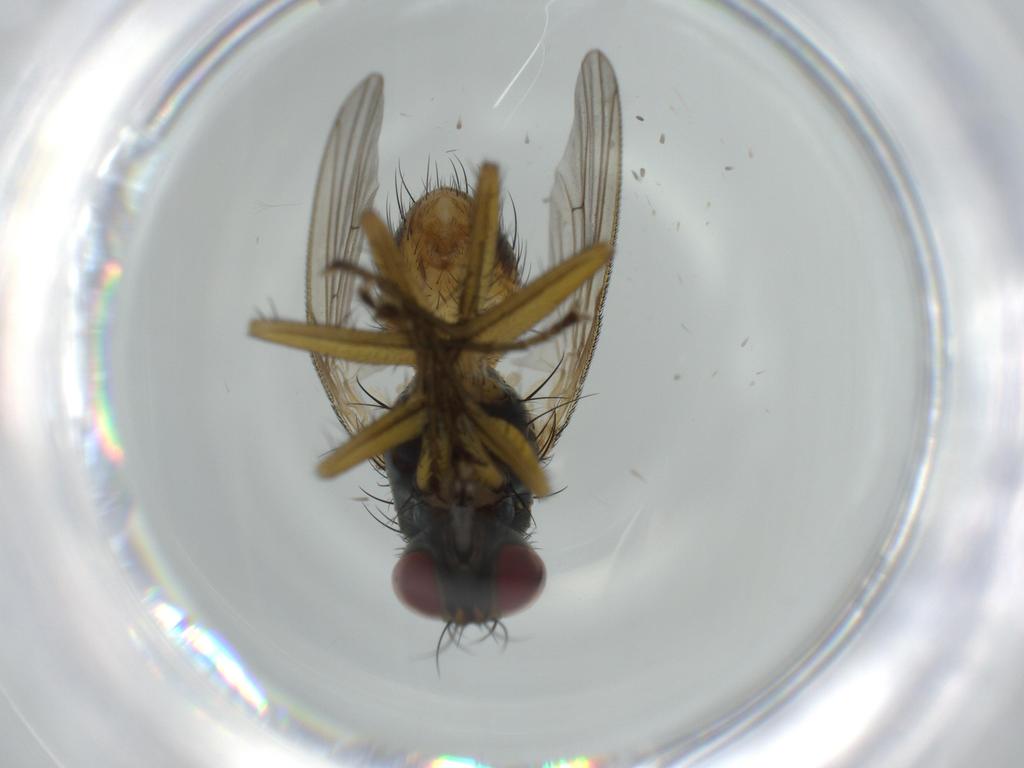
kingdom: Animalia
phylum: Arthropoda
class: Insecta
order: Diptera
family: Muscidae
